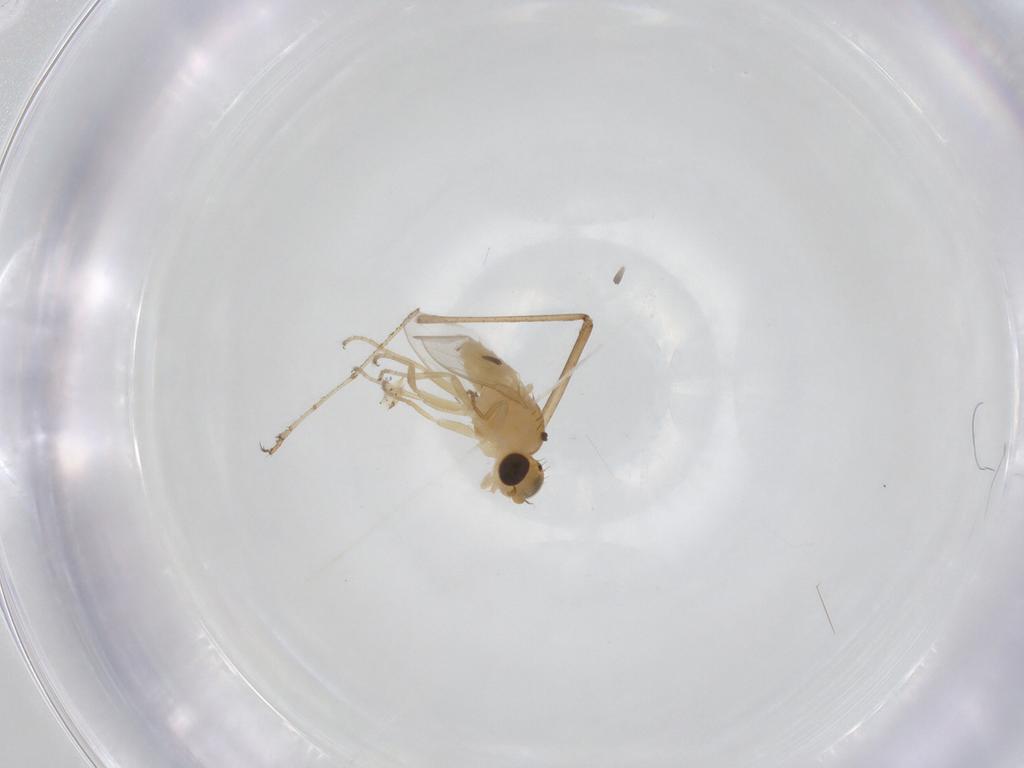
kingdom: Animalia
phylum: Arthropoda
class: Insecta
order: Diptera
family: Chloropidae
